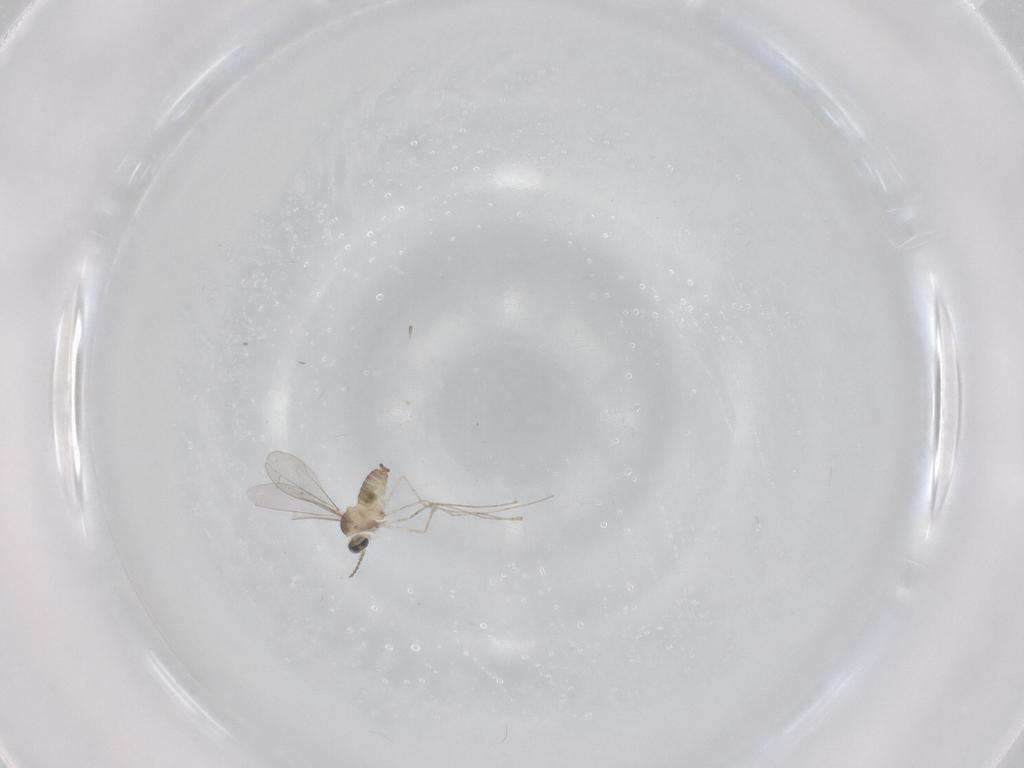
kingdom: Animalia
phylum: Arthropoda
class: Insecta
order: Diptera
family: Cecidomyiidae
